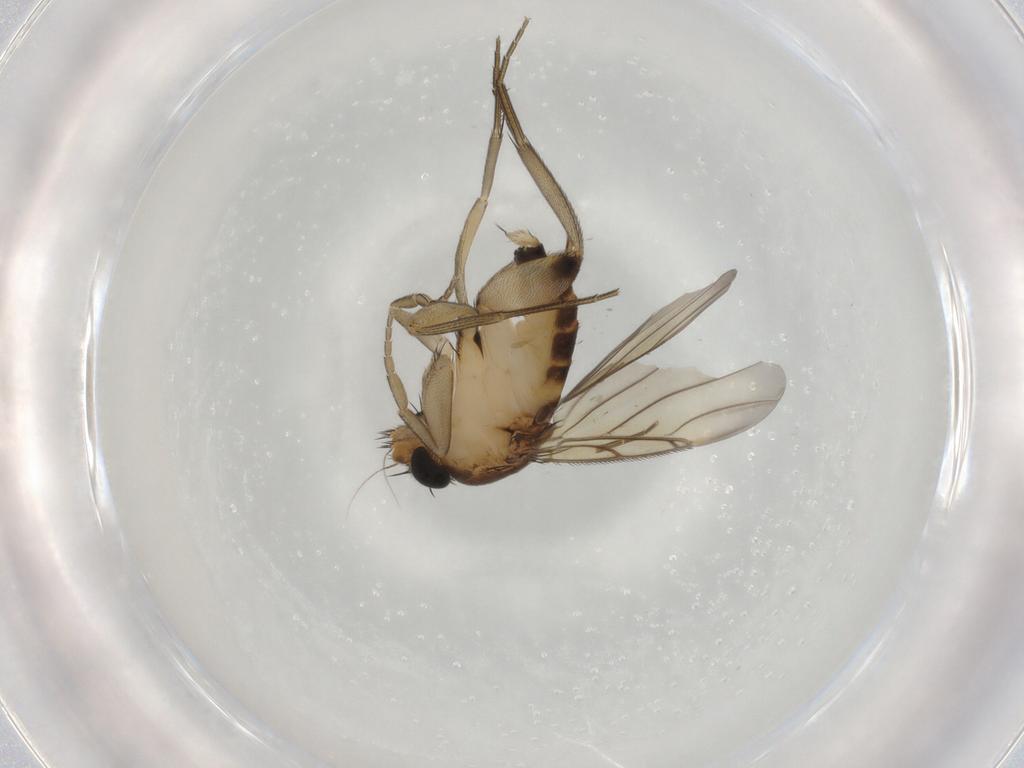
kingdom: Animalia
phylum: Arthropoda
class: Insecta
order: Diptera
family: Phoridae
